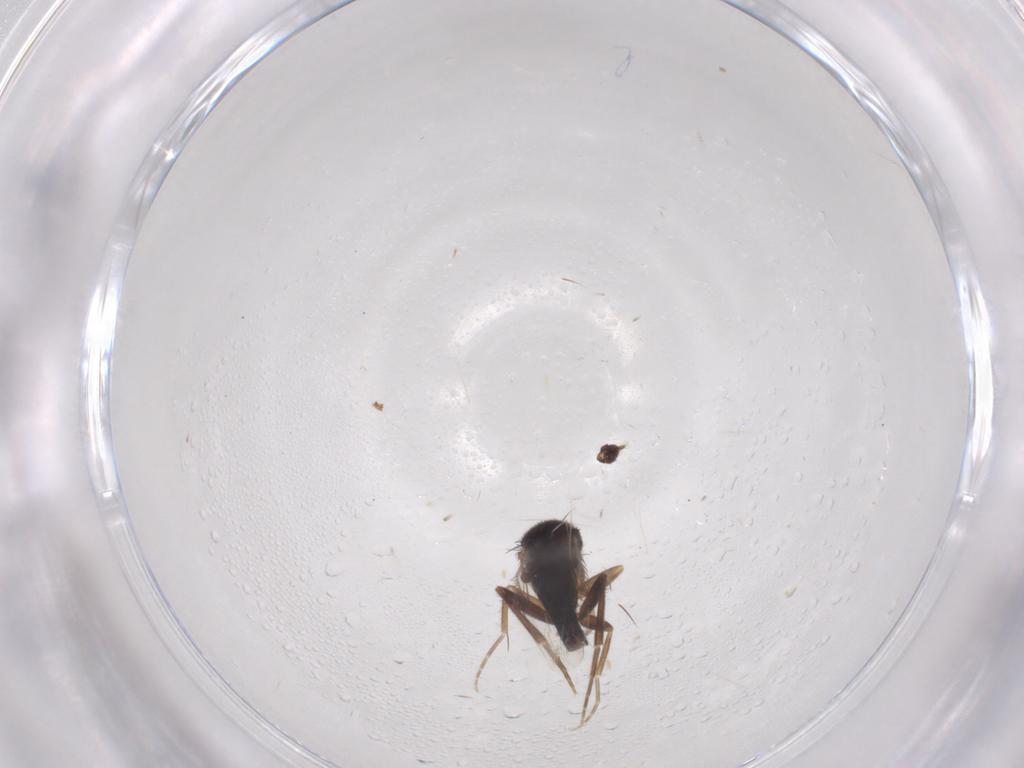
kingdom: Animalia
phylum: Arthropoda
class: Insecta
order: Diptera
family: Phoridae
